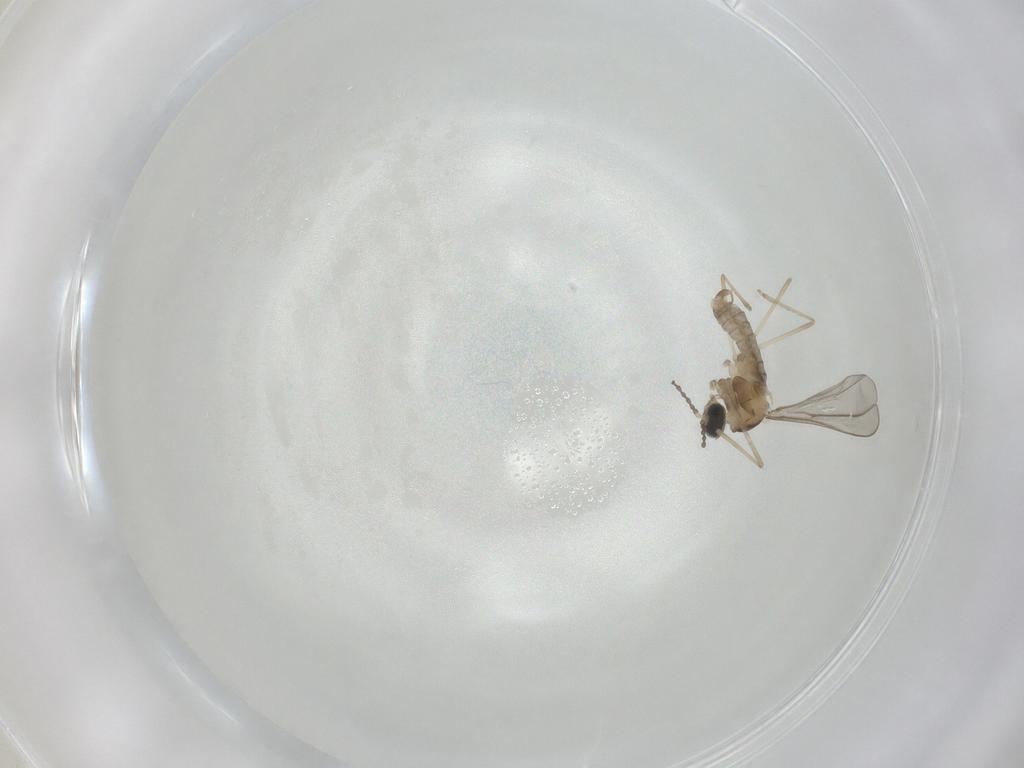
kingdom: Animalia
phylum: Arthropoda
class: Insecta
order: Diptera
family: Cecidomyiidae
